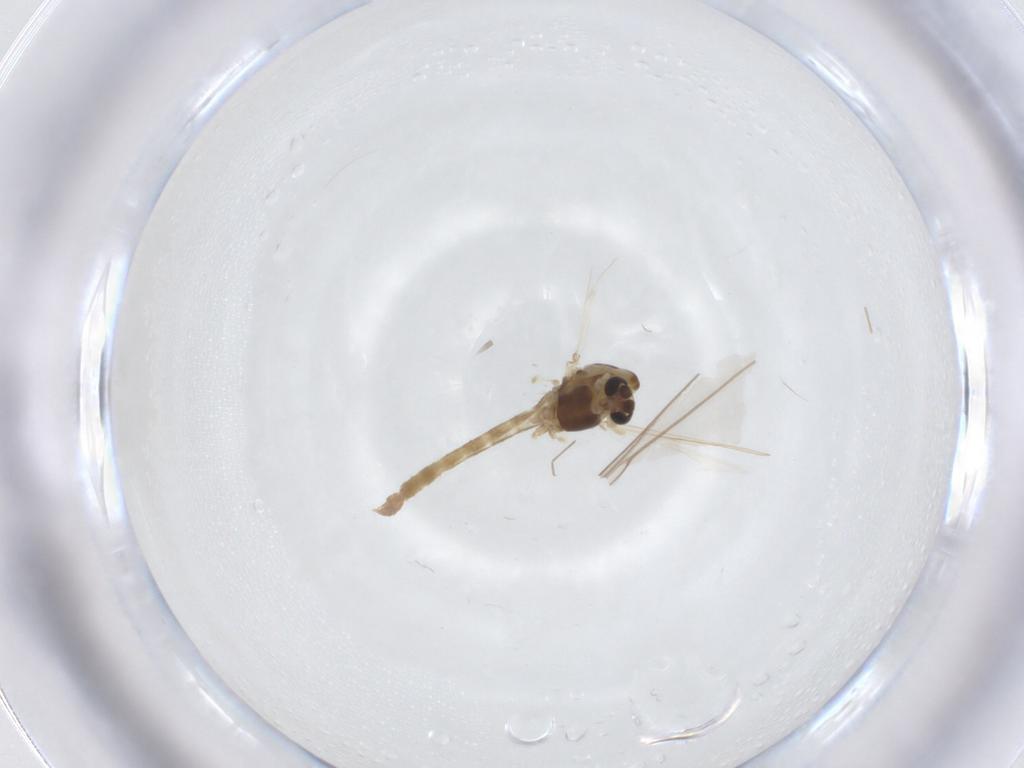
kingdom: Animalia
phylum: Arthropoda
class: Insecta
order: Diptera
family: Chironomidae
